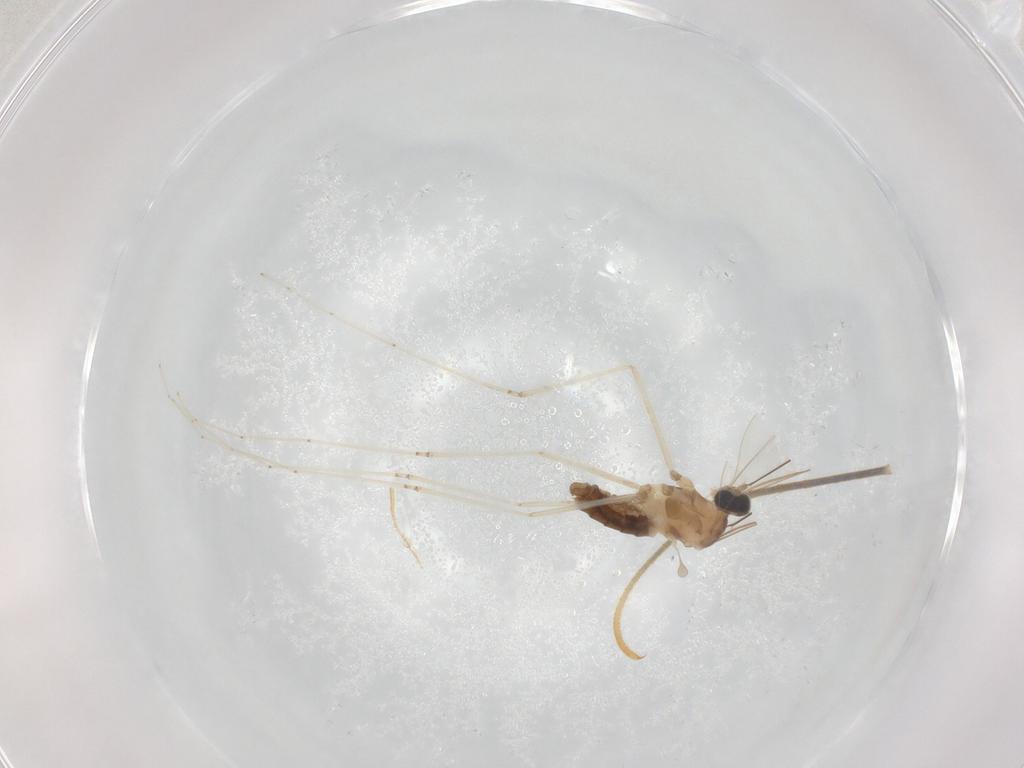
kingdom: Animalia
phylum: Arthropoda
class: Insecta
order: Diptera
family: Cecidomyiidae
